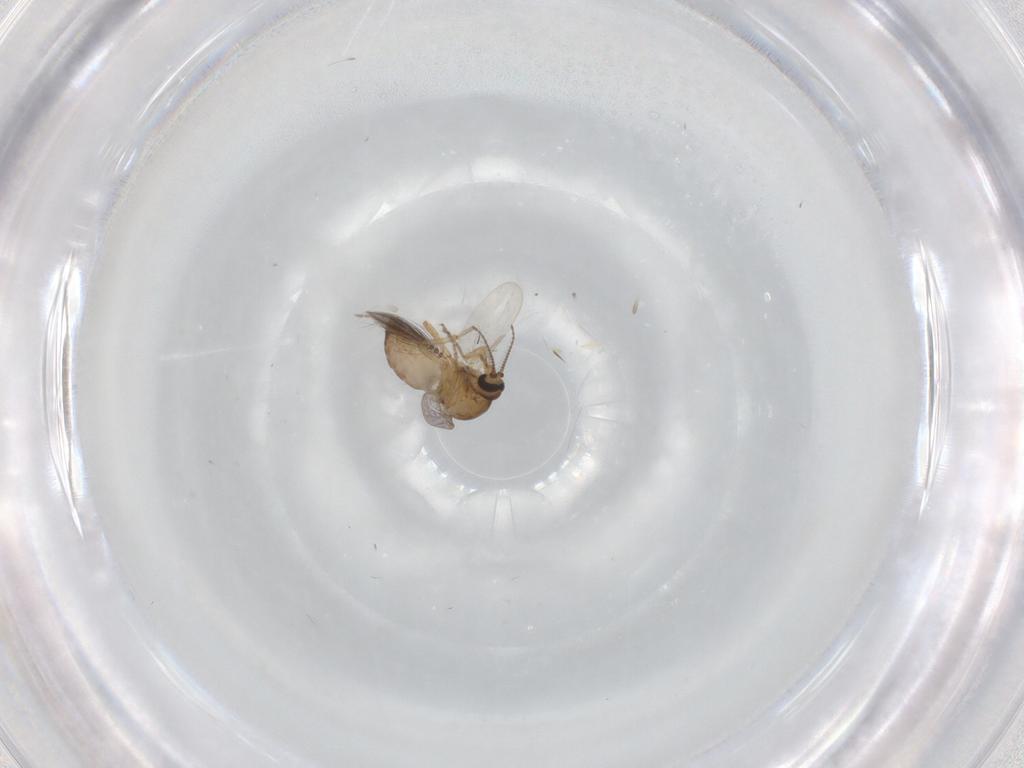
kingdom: Animalia
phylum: Arthropoda
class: Insecta
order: Diptera
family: Ceratopogonidae
